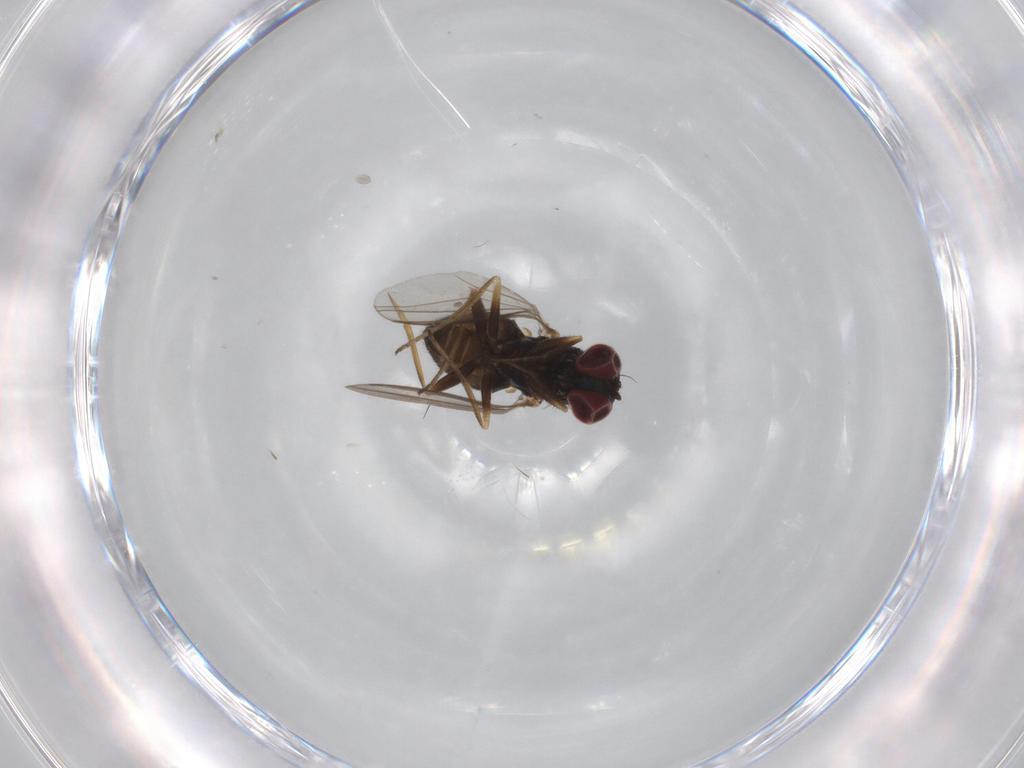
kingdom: Animalia
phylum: Arthropoda
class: Insecta
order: Diptera
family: Dolichopodidae
